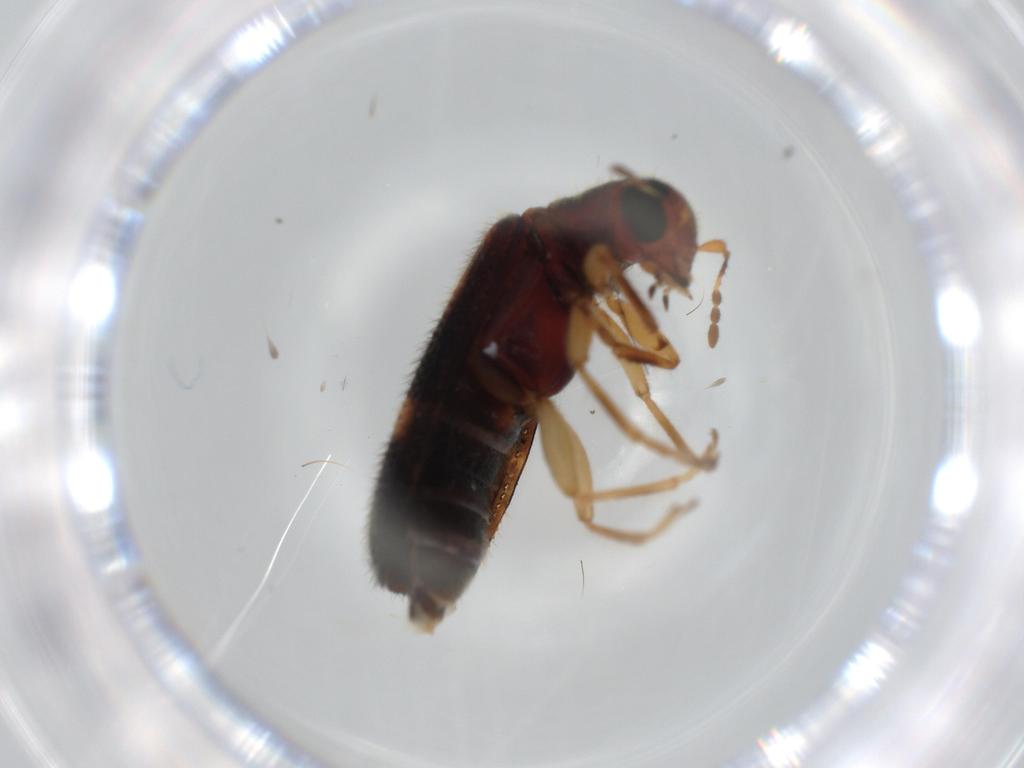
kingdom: Animalia
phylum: Arthropoda
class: Insecta
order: Coleoptera
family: Cleridae
